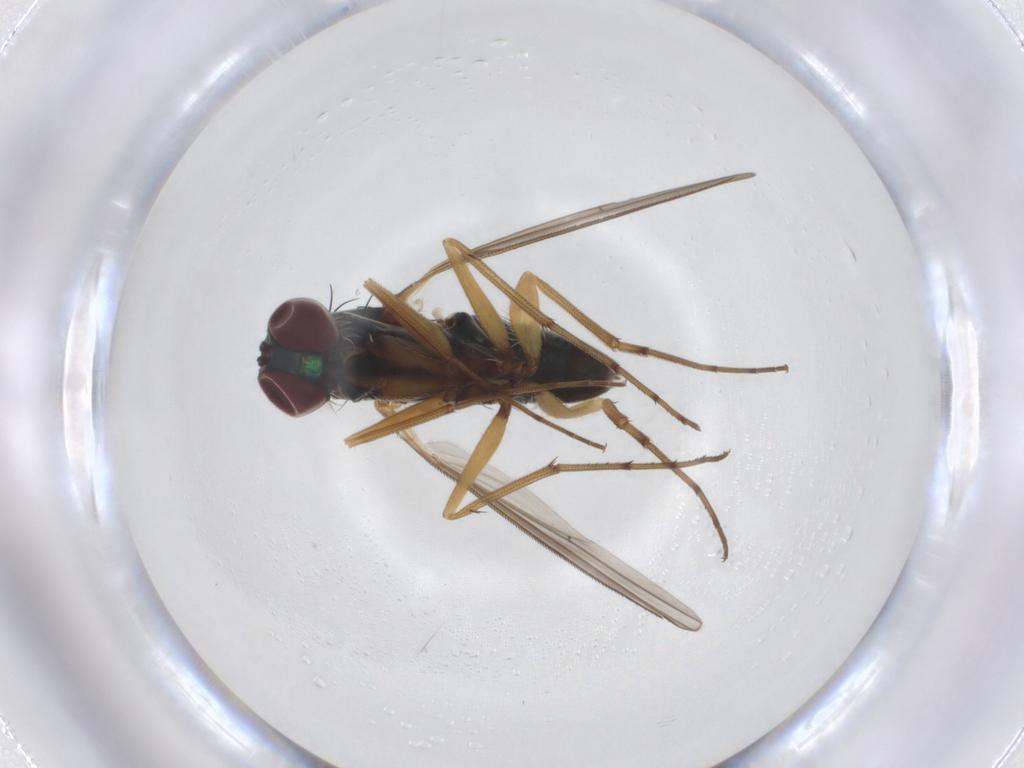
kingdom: Animalia
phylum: Arthropoda
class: Insecta
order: Diptera
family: Dolichopodidae
